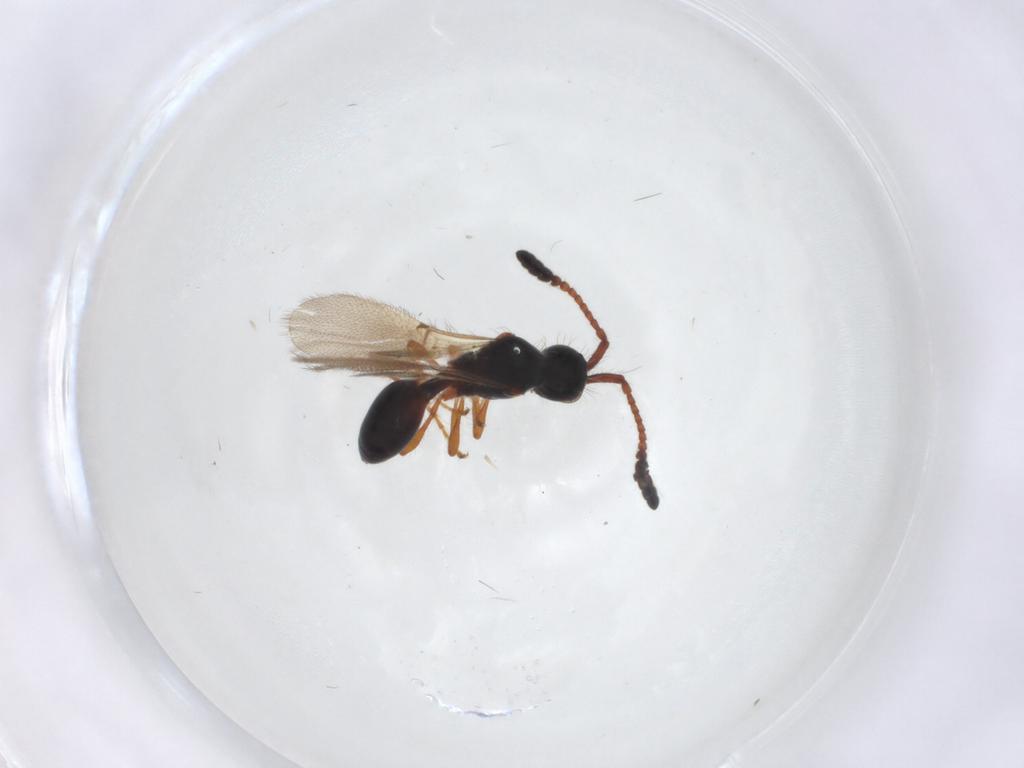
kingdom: Animalia
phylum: Arthropoda
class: Insecta
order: Hymenoptera
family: Diapriidae
